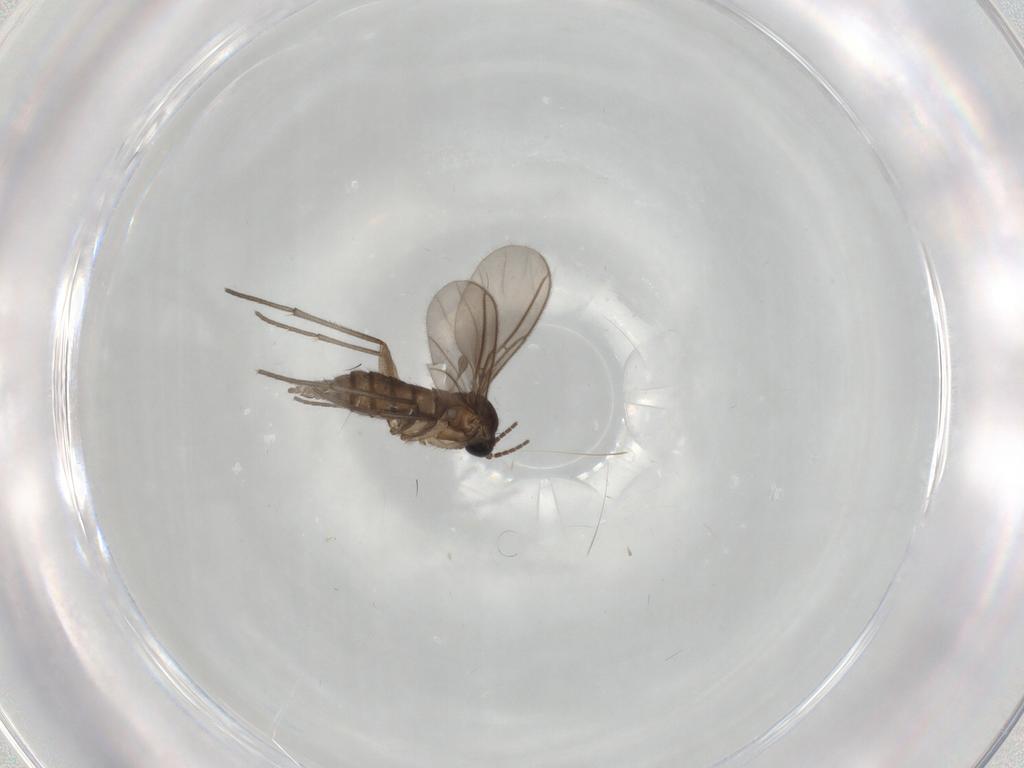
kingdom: Animalia
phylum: Arthropoda
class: Insecta
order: Diptera
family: Sciaridae
